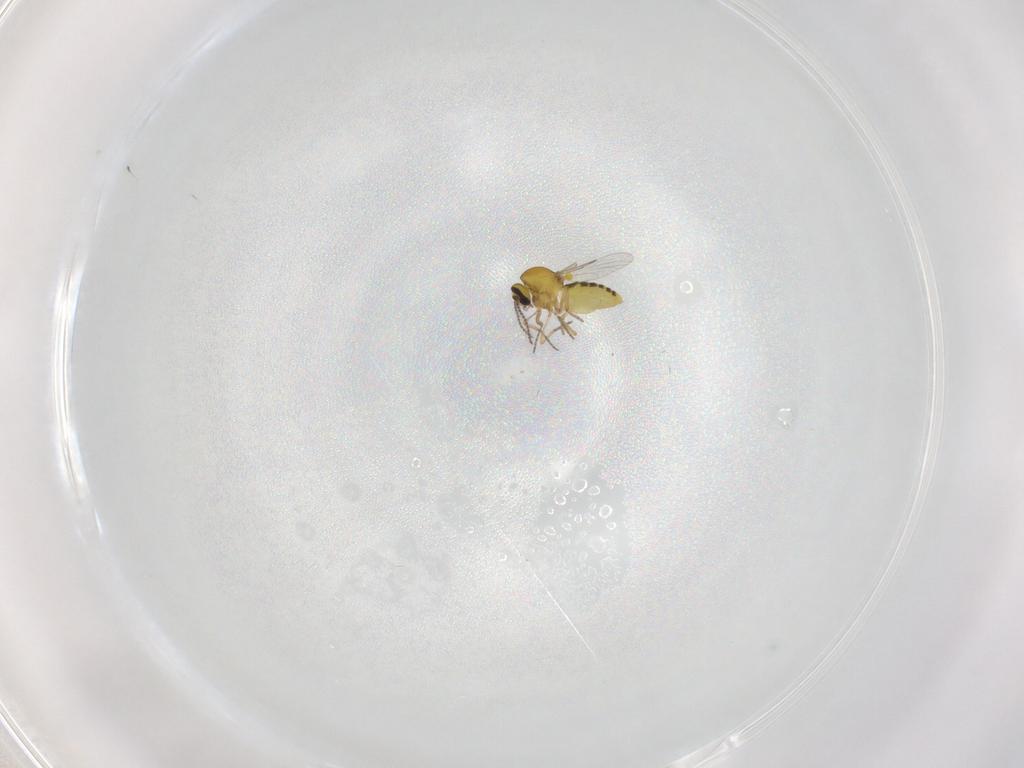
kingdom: Animalia
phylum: Arthropoda
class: Insecta
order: Diptera
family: Ceratopogonidae
